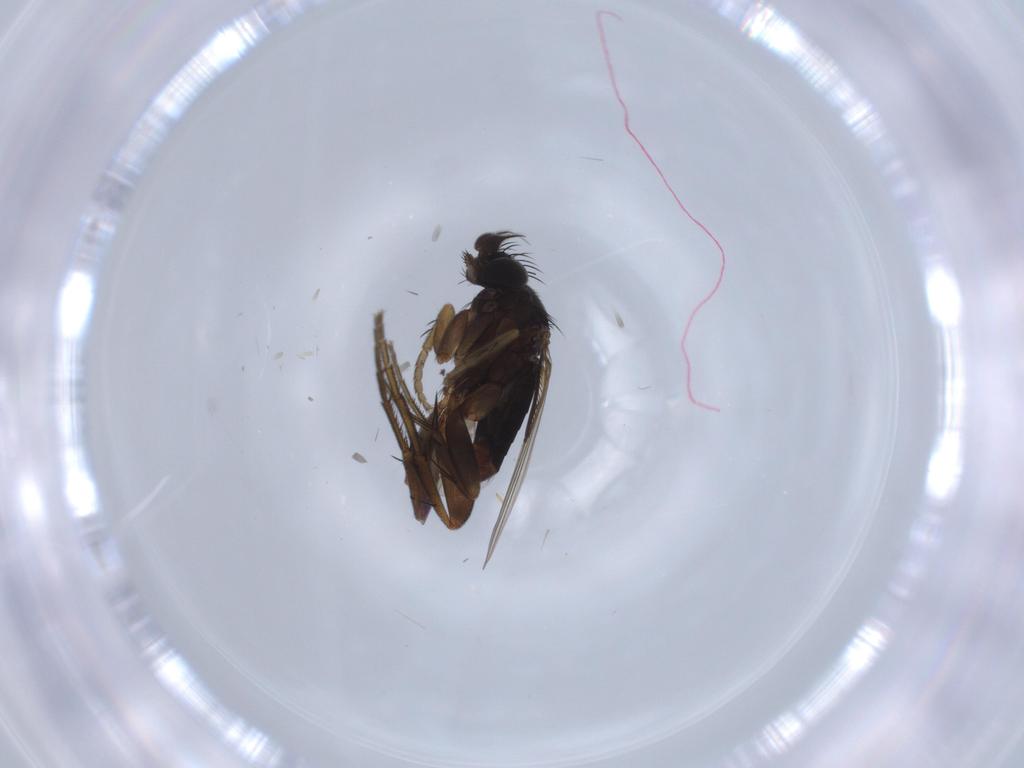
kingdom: Animalia
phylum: Arthropoda
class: Insecta
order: Diptera
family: Phoridae
